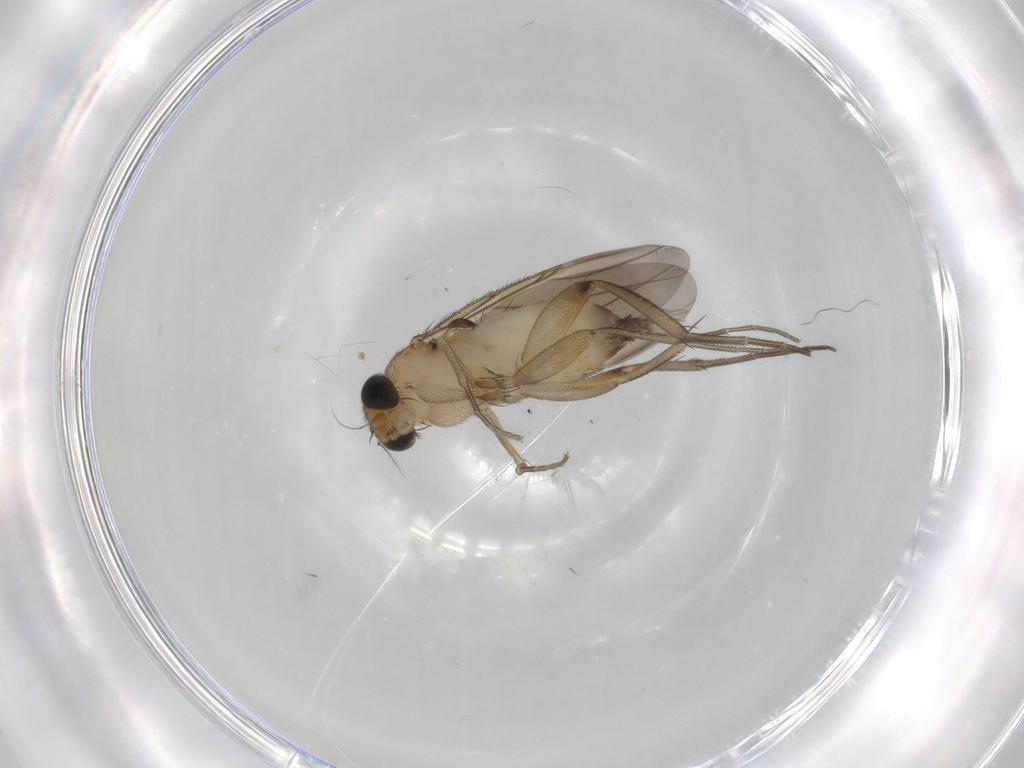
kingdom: Animalia
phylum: Arthropoda
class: Insecta
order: Diptera
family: Phoridae
